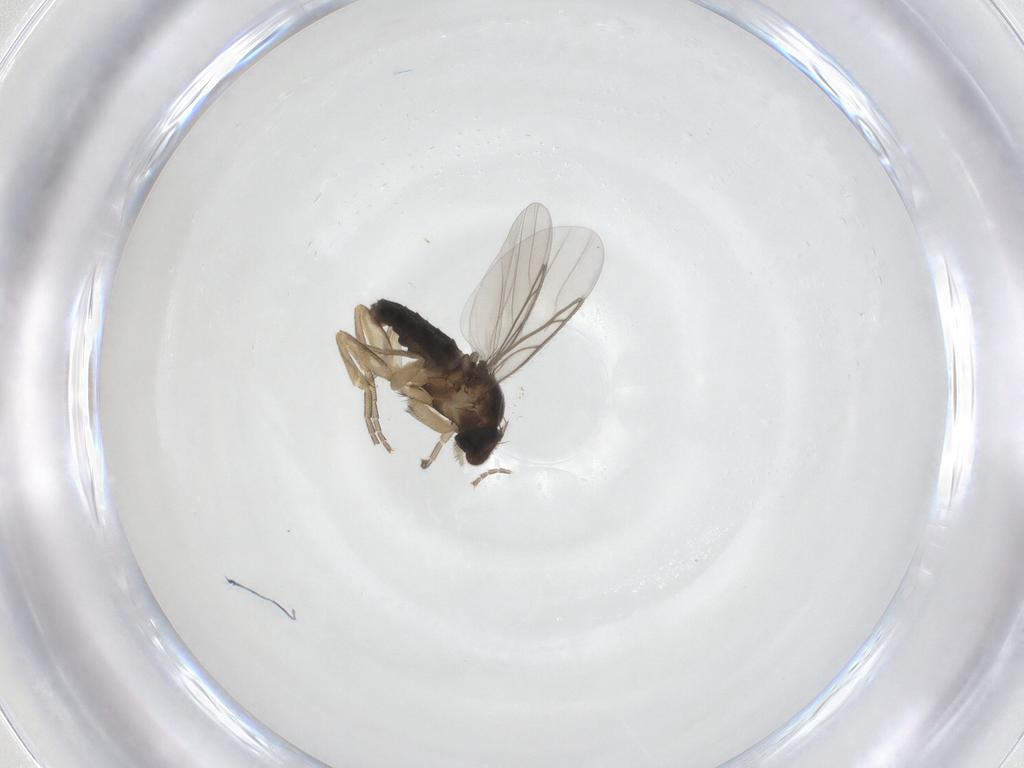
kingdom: Animalia
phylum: Arthropoda
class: Insecta
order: Diptera
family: Phoridae
